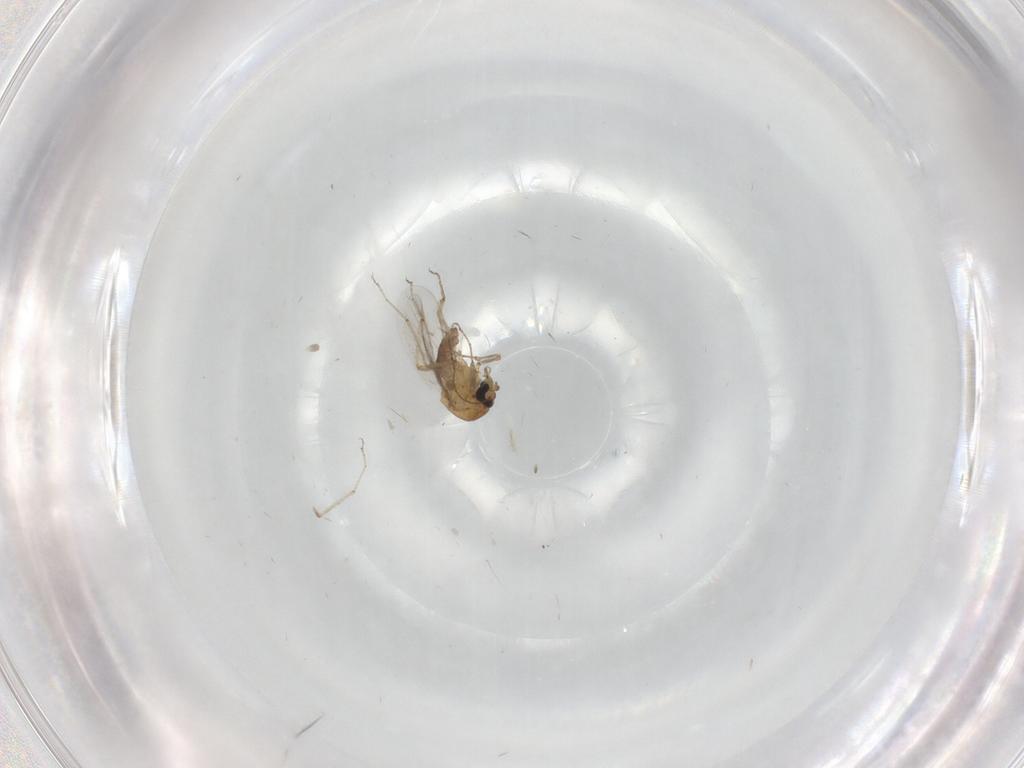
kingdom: Animalia
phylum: Arthropoda
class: Insecta
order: Diptera
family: Ceratopogonidae
